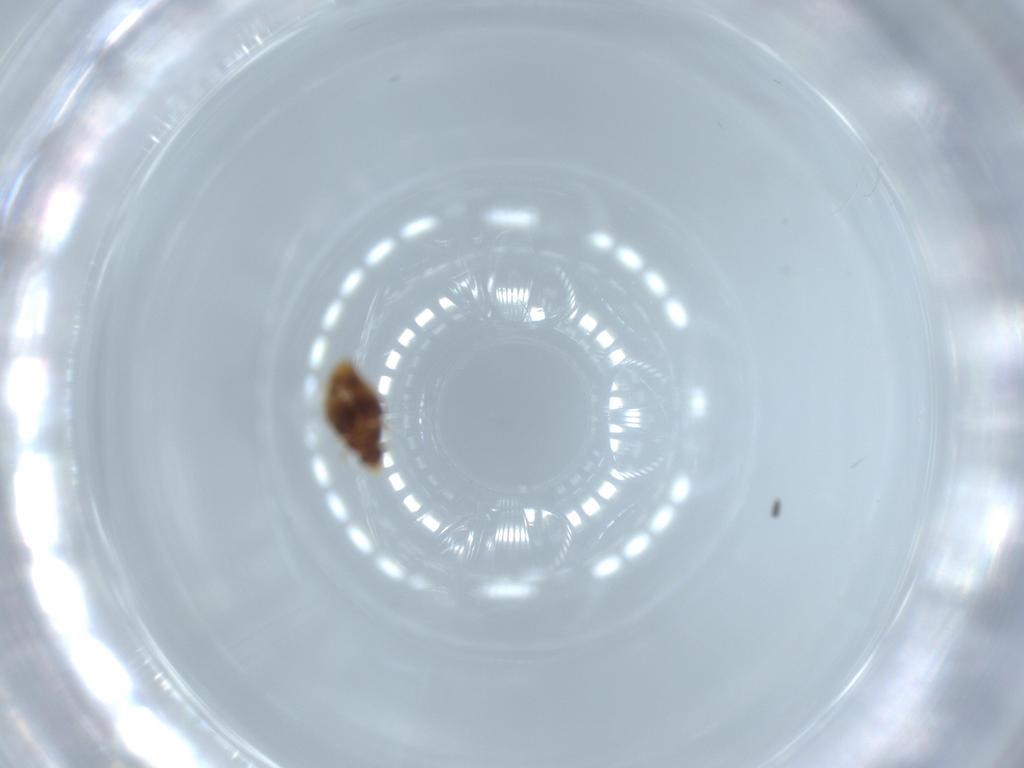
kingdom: Animalia
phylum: Arthropoda
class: Insecta
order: Coleoptera
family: Ptiliidae
